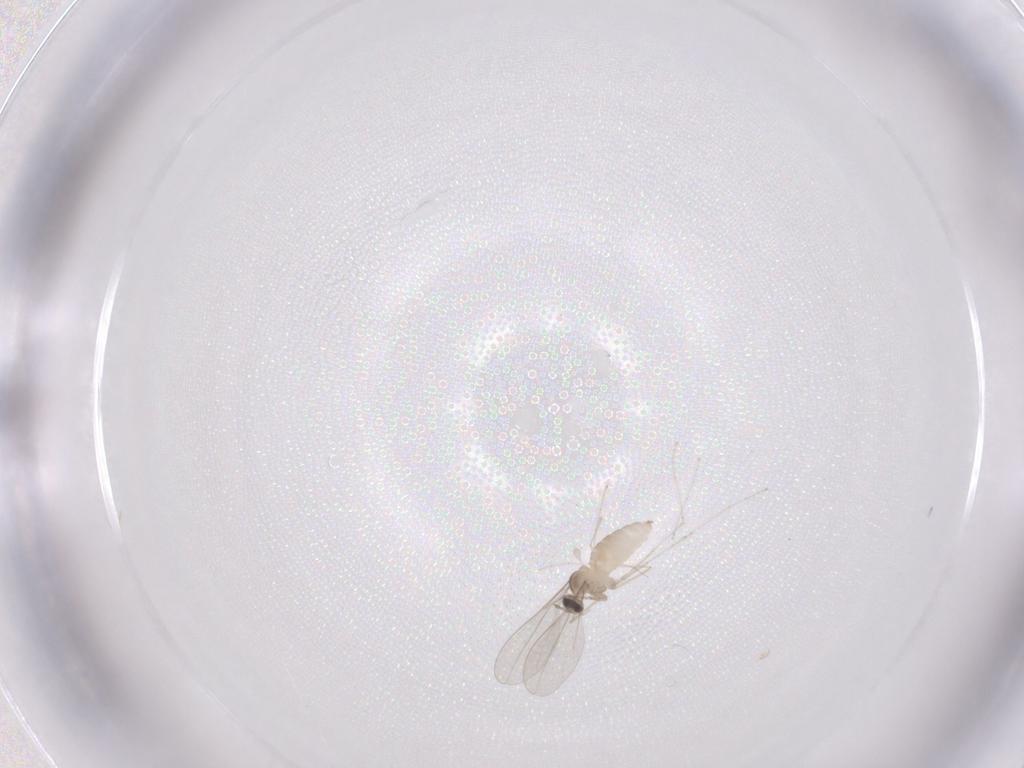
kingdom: Animalia
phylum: Arthropoda
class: Insecta
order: Diptera
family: Cecidomyiidae
